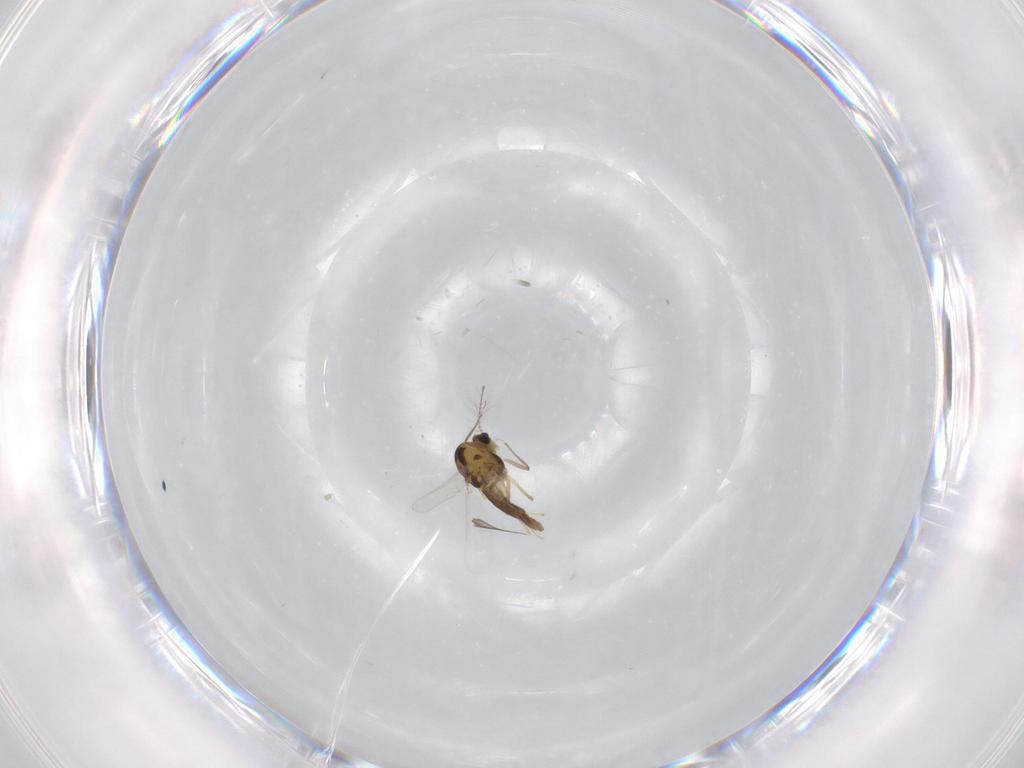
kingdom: Animalia
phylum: Arthropoda
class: Insecta
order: Diptera
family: Chironomidae
